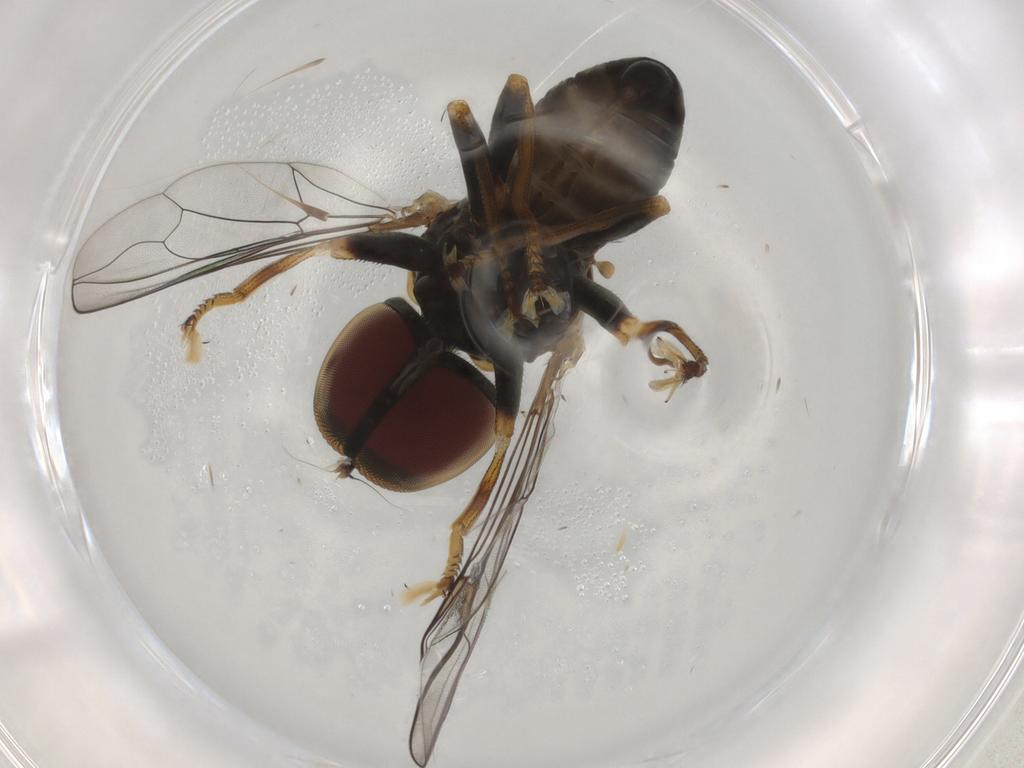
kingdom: Animalia
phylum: Arthropoda
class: Insecta
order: Diptera
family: Pipunculidae
